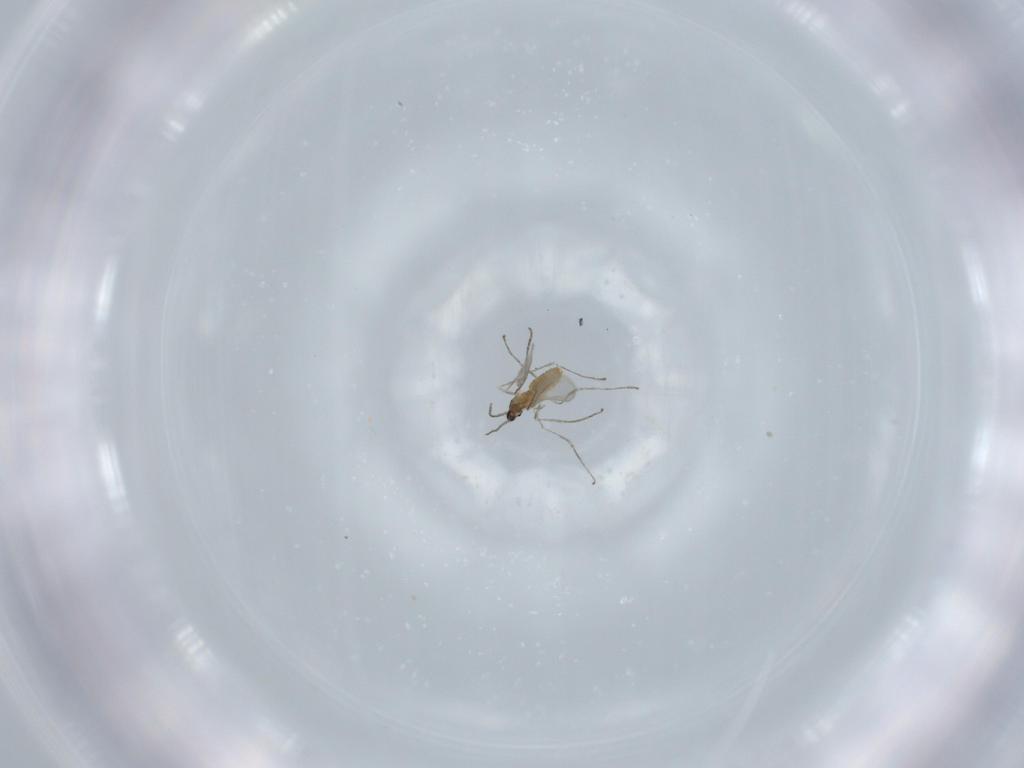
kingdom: Animalia
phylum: Arthropoda
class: Insecta
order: Diptera
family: Cecidomyiidae
